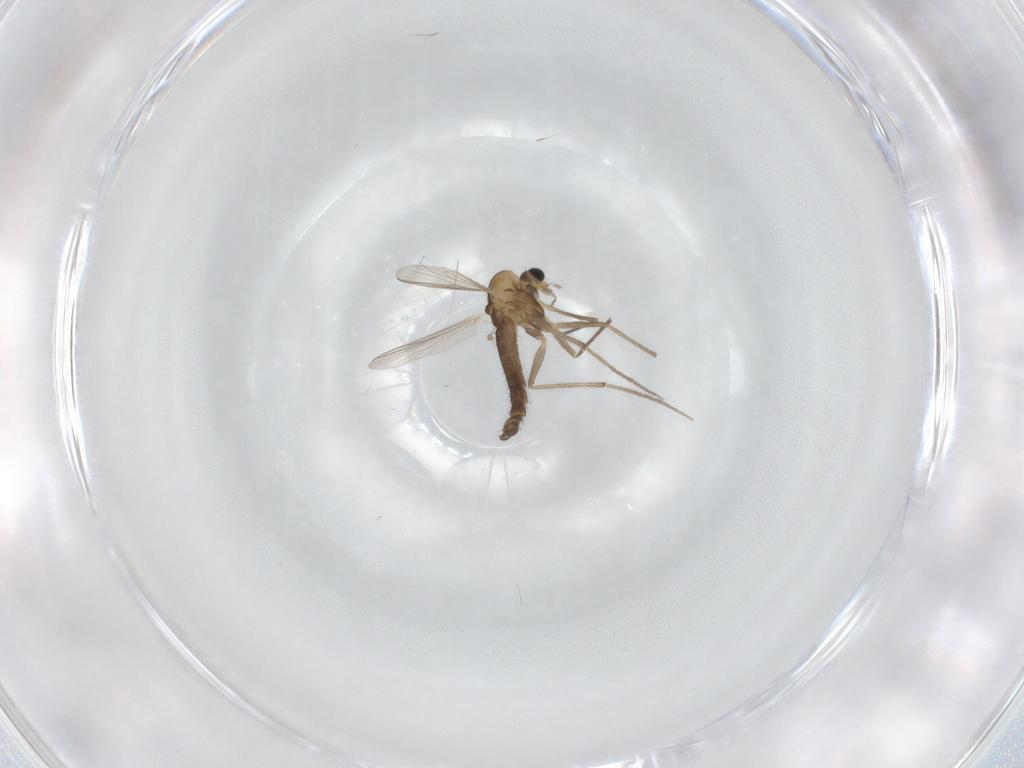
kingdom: Animalia
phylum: Arthropoda
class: Insecta
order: Diptera
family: Chironomidae
